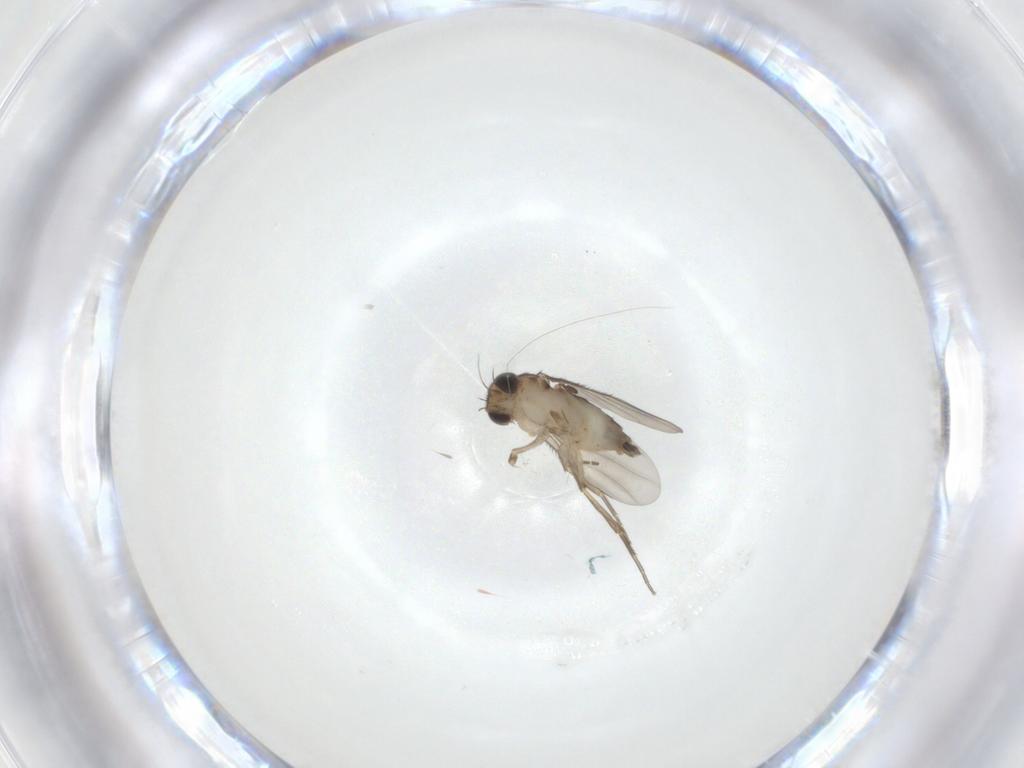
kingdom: Animalia
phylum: Arthropoda
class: Insecta
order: Diptera
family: Phoridae
